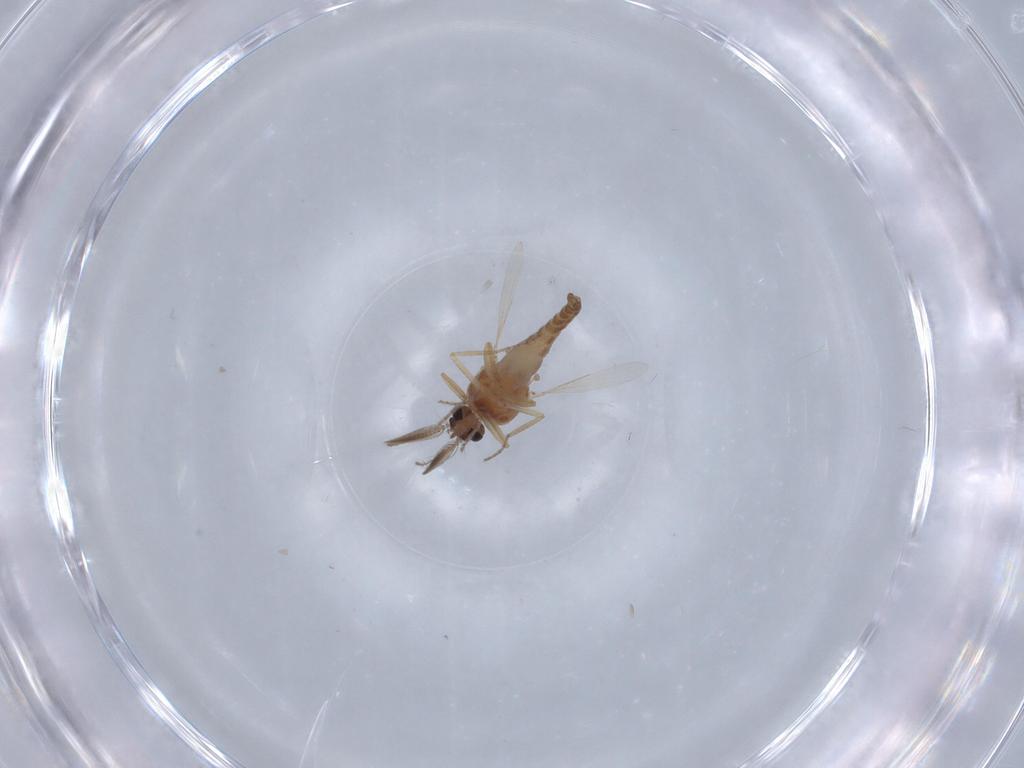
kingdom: Animalia
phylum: Arthropoda
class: Insecta
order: Diptera
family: Ceratopogonidae
